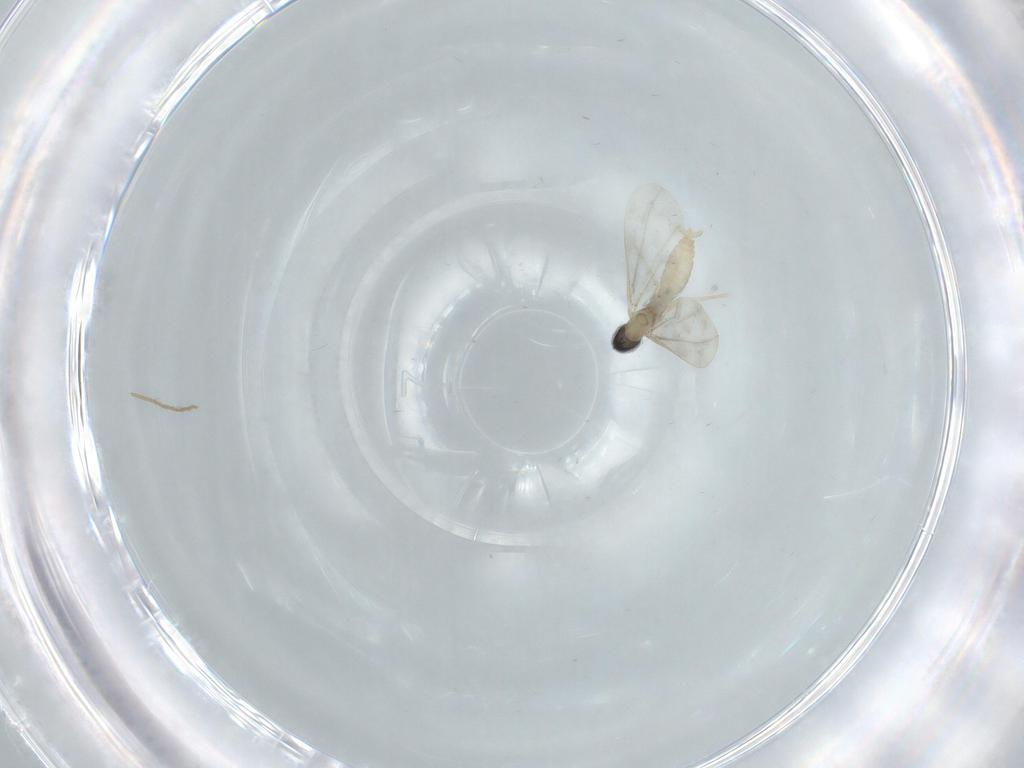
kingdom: Animalia
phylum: Arthropoda
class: Insecta
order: Diptera
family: Cecidomyiidae
